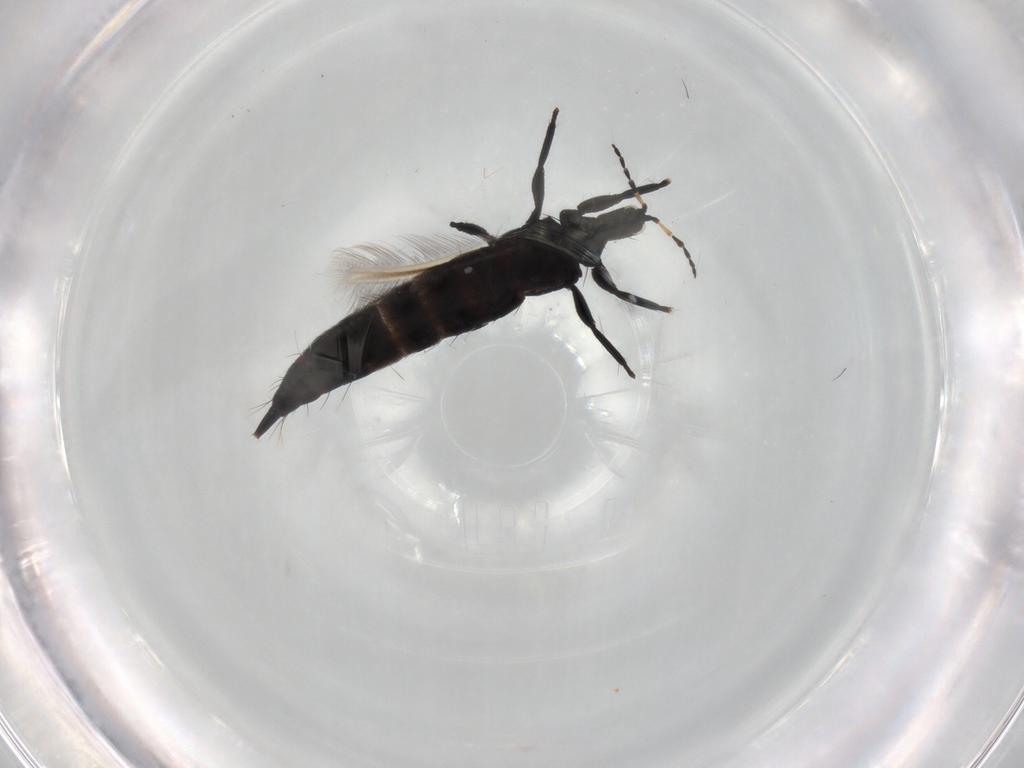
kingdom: Animalia
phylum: Arthropoda
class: Insecta
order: Thysanoptera
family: Phlaeothripidae
